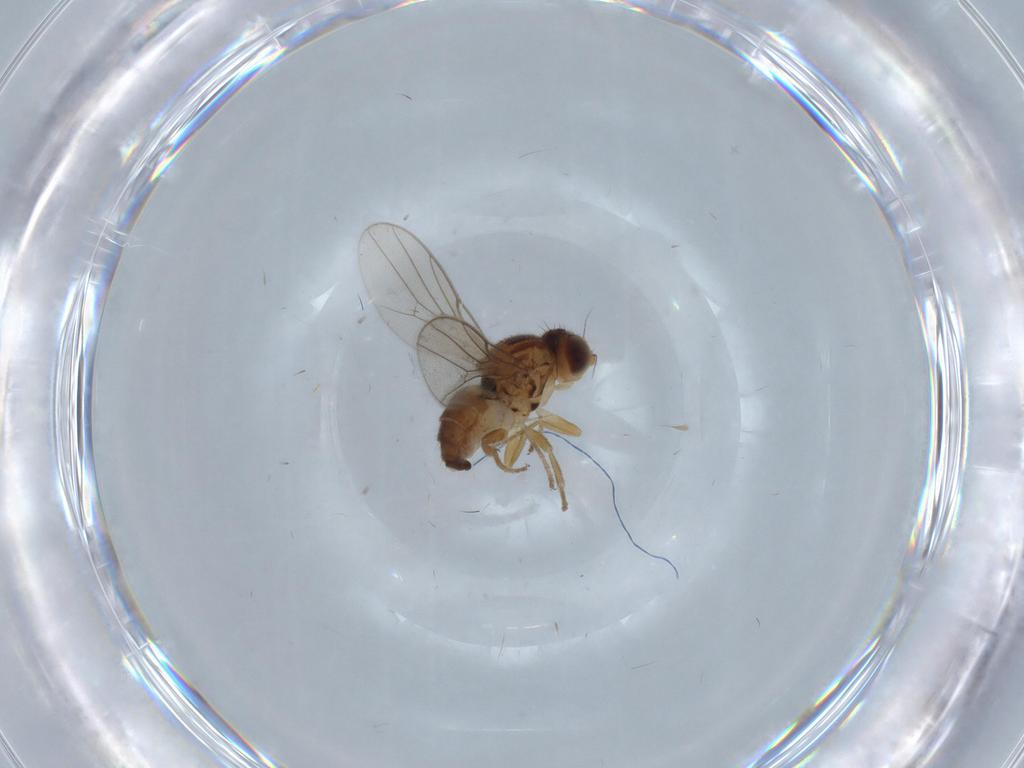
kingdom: Animalia
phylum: Arthropoda
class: Insecta
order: Diptera
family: Chloropidae
